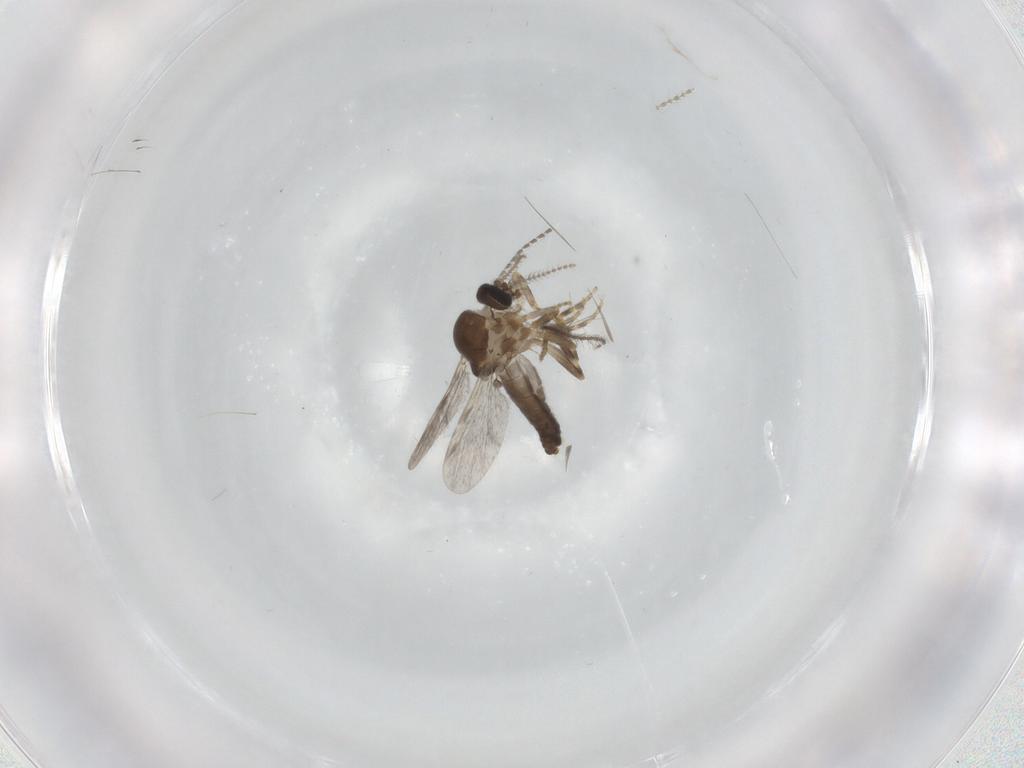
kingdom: Animalia
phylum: Arthropoda
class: Insecta
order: Diptera
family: Ceratopogonidae
